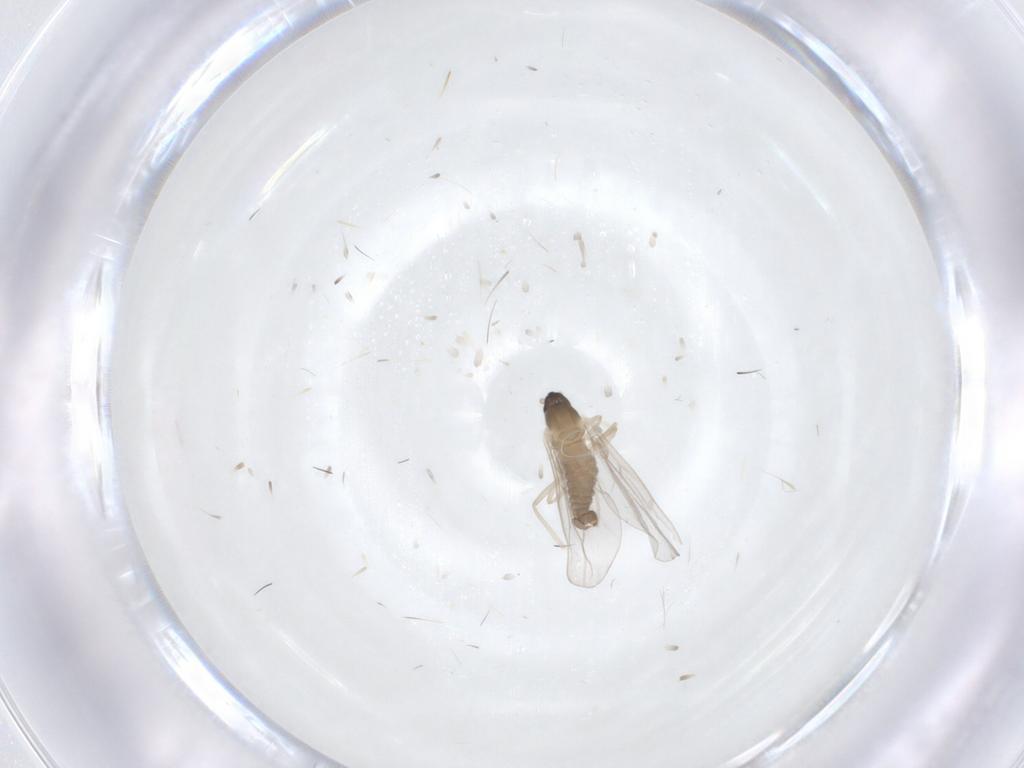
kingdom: Animalia
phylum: Arthropoda
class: Insecta
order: Diptera
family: Cecidomyiidae
